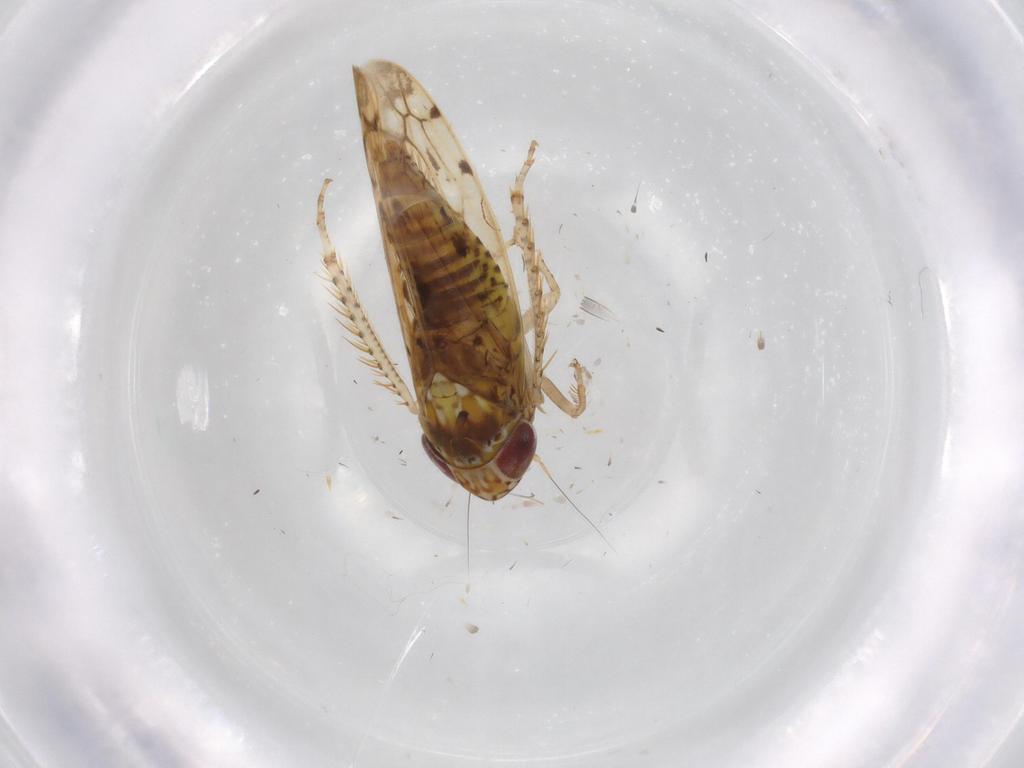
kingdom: Animalia
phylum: Arthropoda
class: Insecta
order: Hemiptera
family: Cicadellidae
